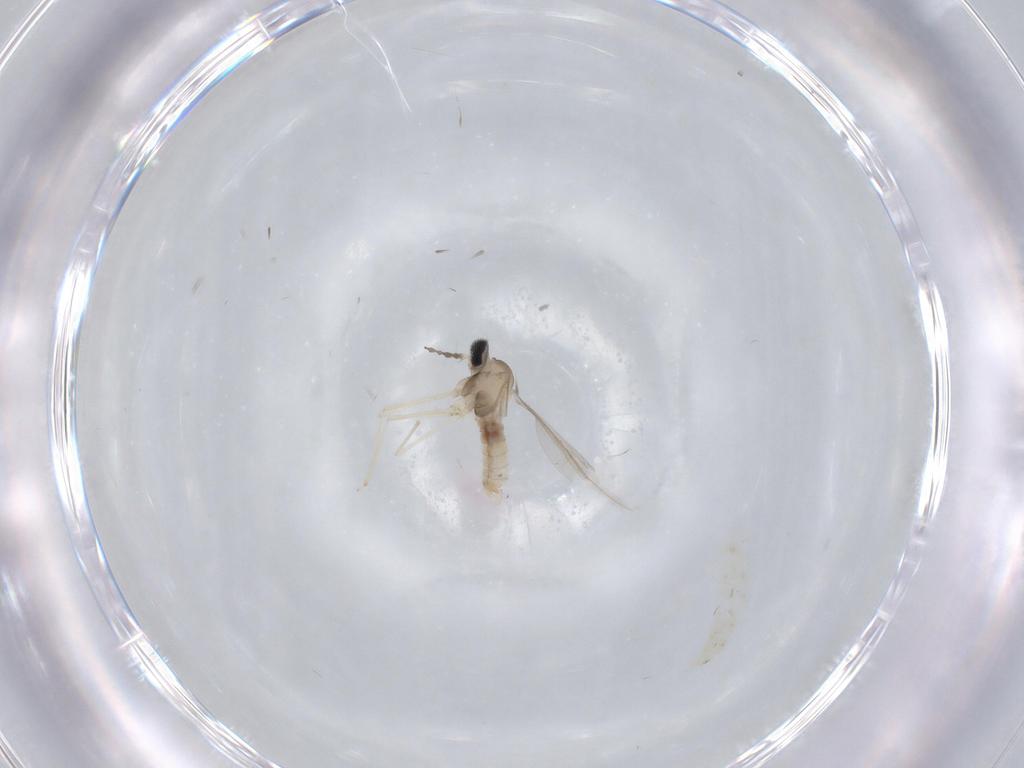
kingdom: Animalia
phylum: Arthropoda
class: Insecta
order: Diptera
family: Cecidomyiidae
